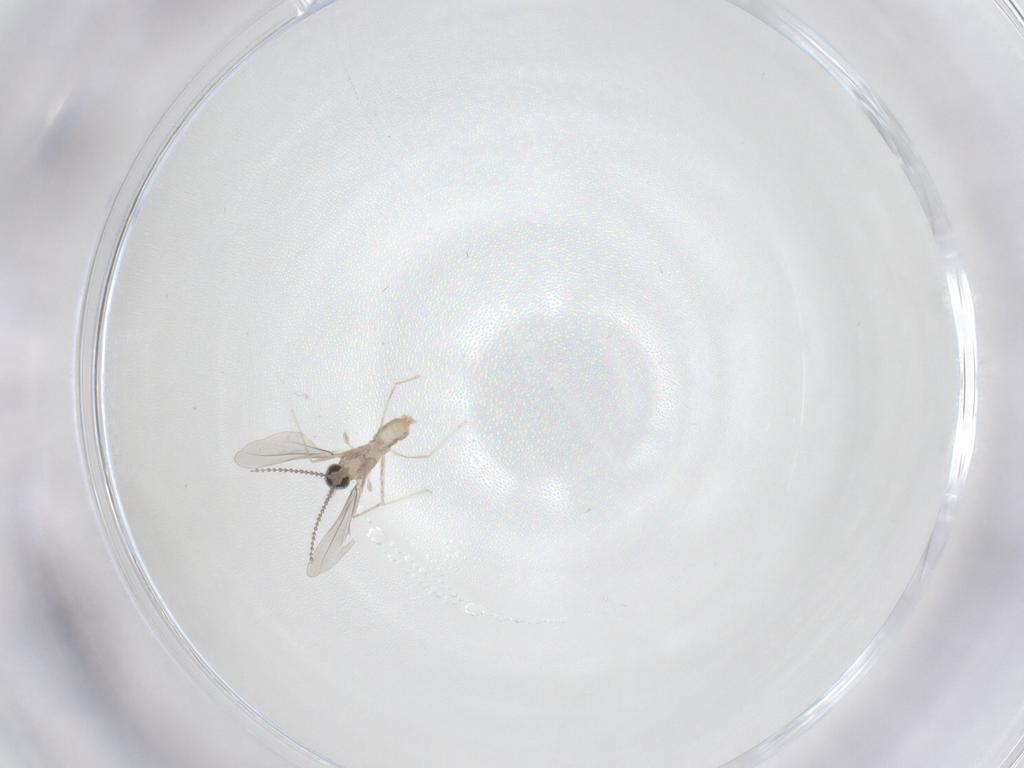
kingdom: Animalia
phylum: Arthropoda
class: Insecta
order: Diptera
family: Cecidomyiidae
